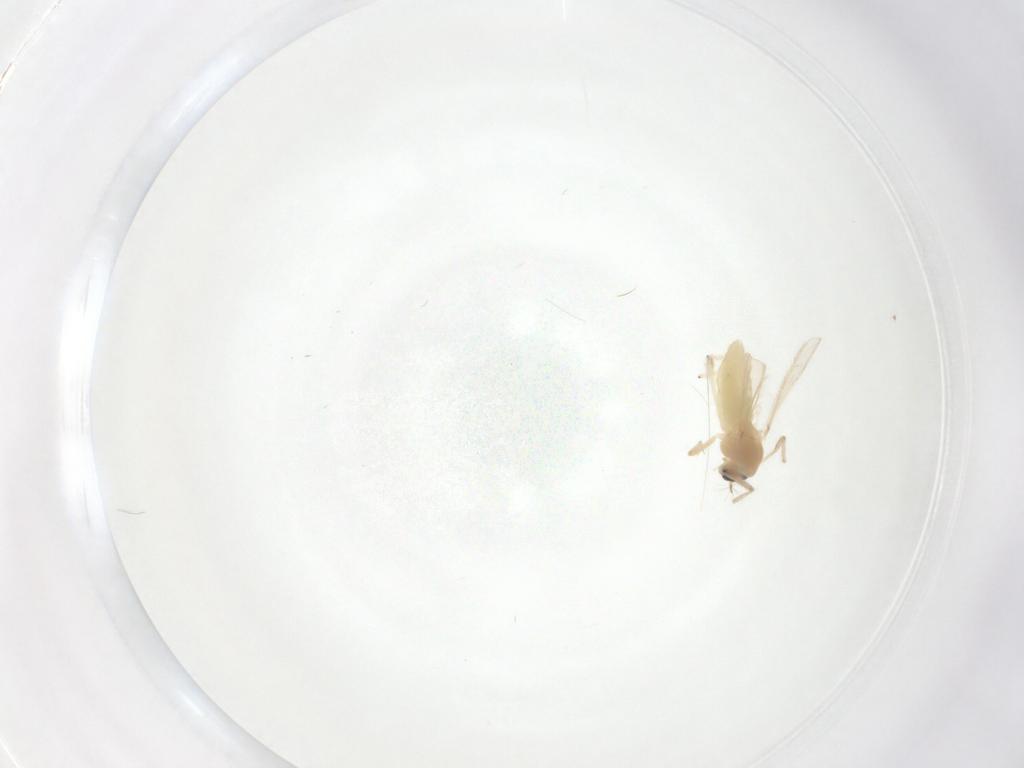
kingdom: Animalia
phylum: Arthropoda
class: Insecta
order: Diptera
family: Chironomidae
